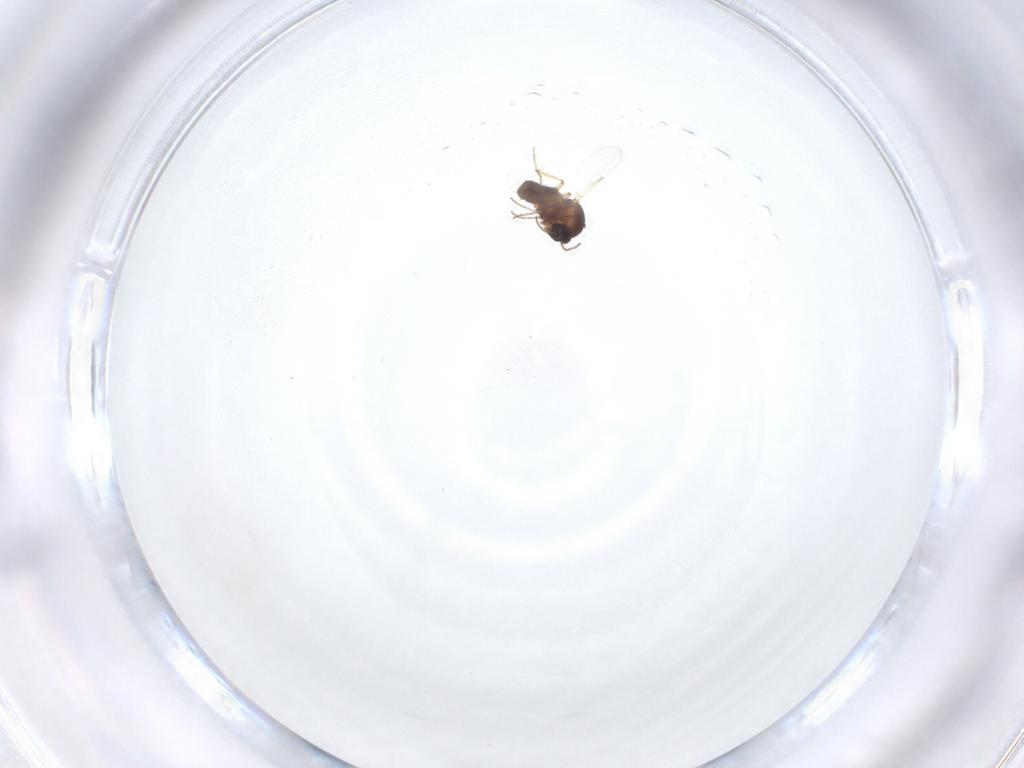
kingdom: Animalia
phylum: Arthropoda
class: Insecta
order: Diptera
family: Ceratopogonidae
